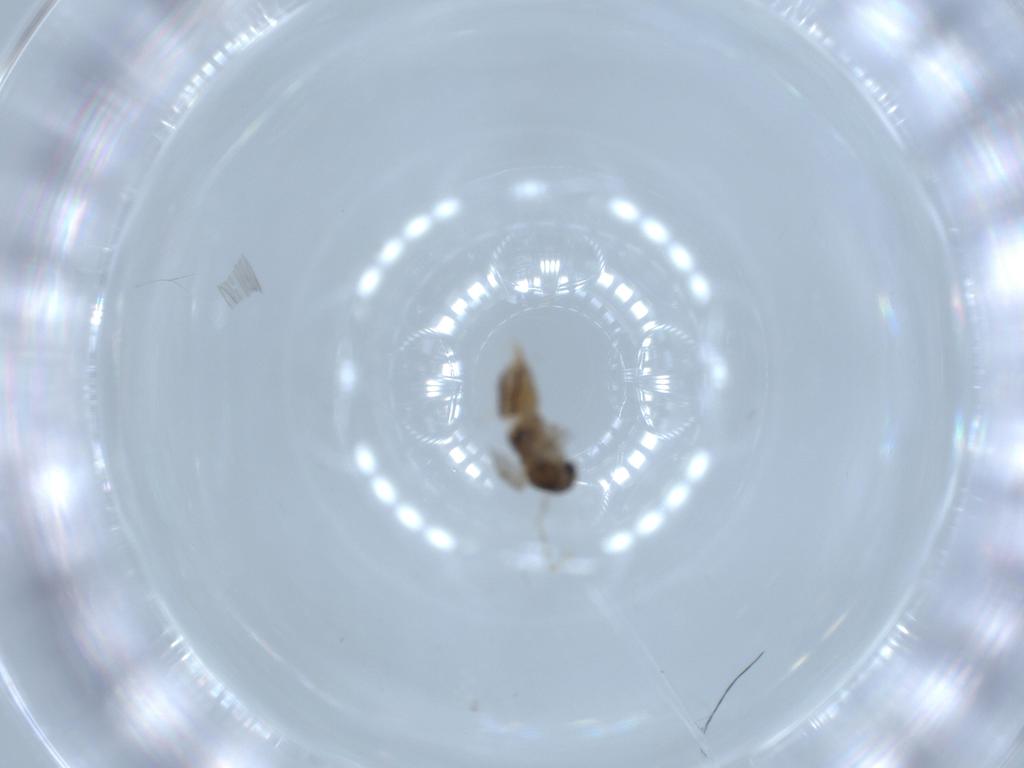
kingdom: Animalia
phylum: Arthropoda
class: Insecta
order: Diptera
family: Psychodidae
